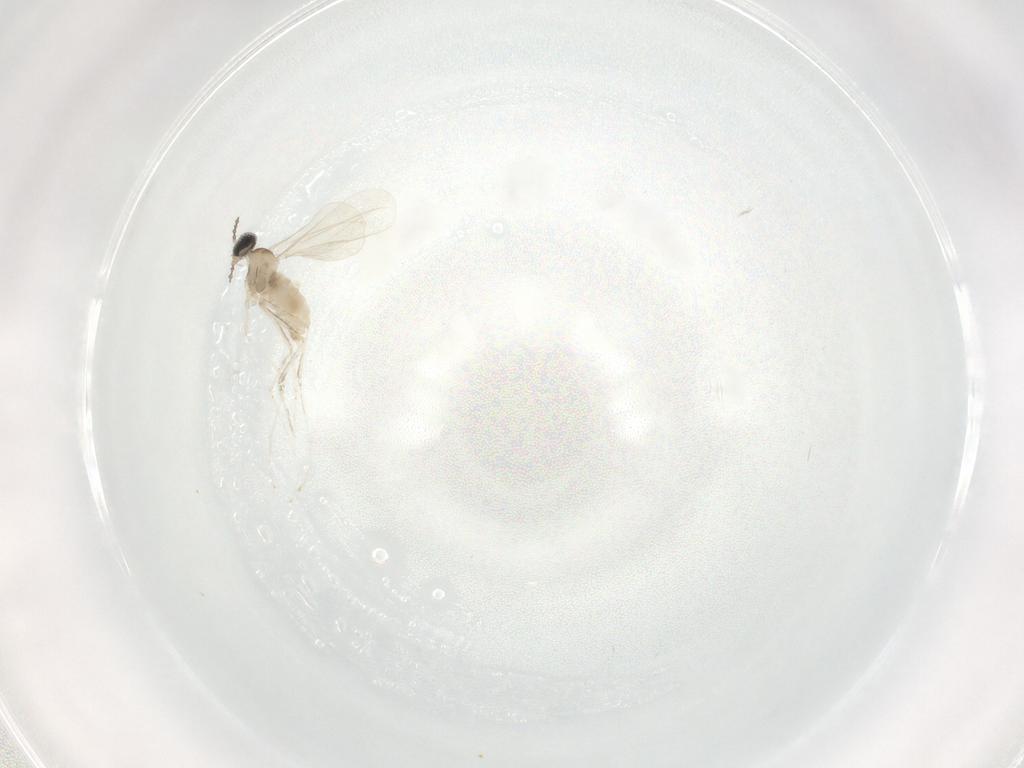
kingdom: Animalia
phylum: Arthropoda
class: Insecta
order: Diptera
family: Cecidomyiidae
